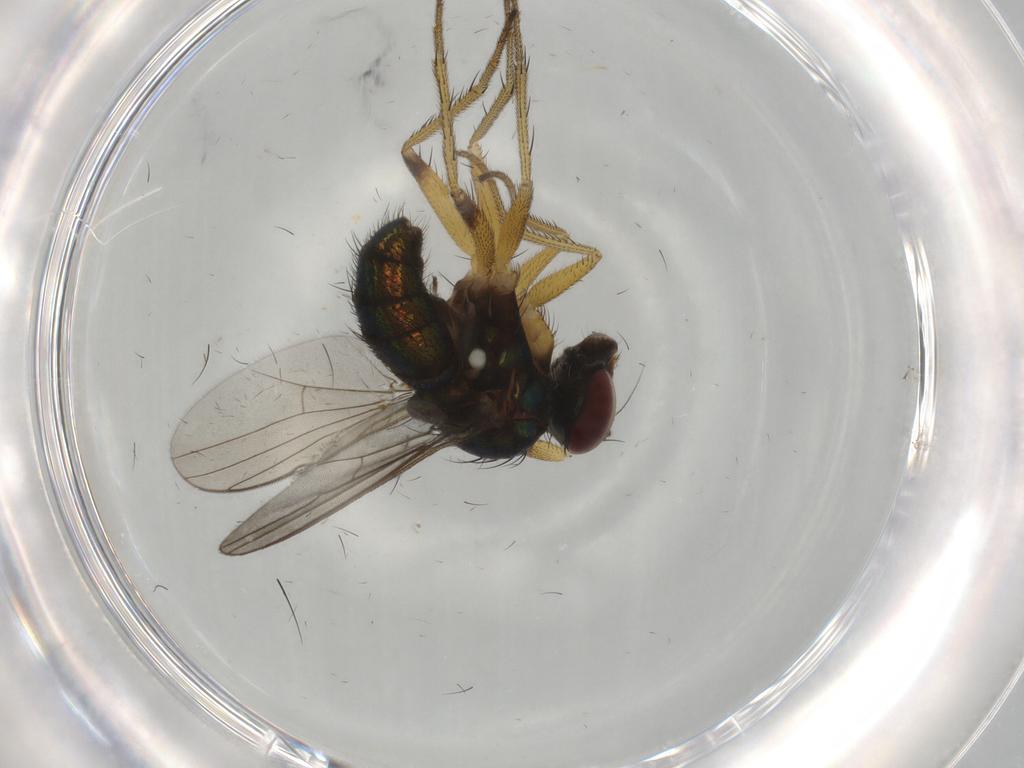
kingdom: Animalia
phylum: Arthropoda
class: Insecta
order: Diptera
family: Dolichopodidae
